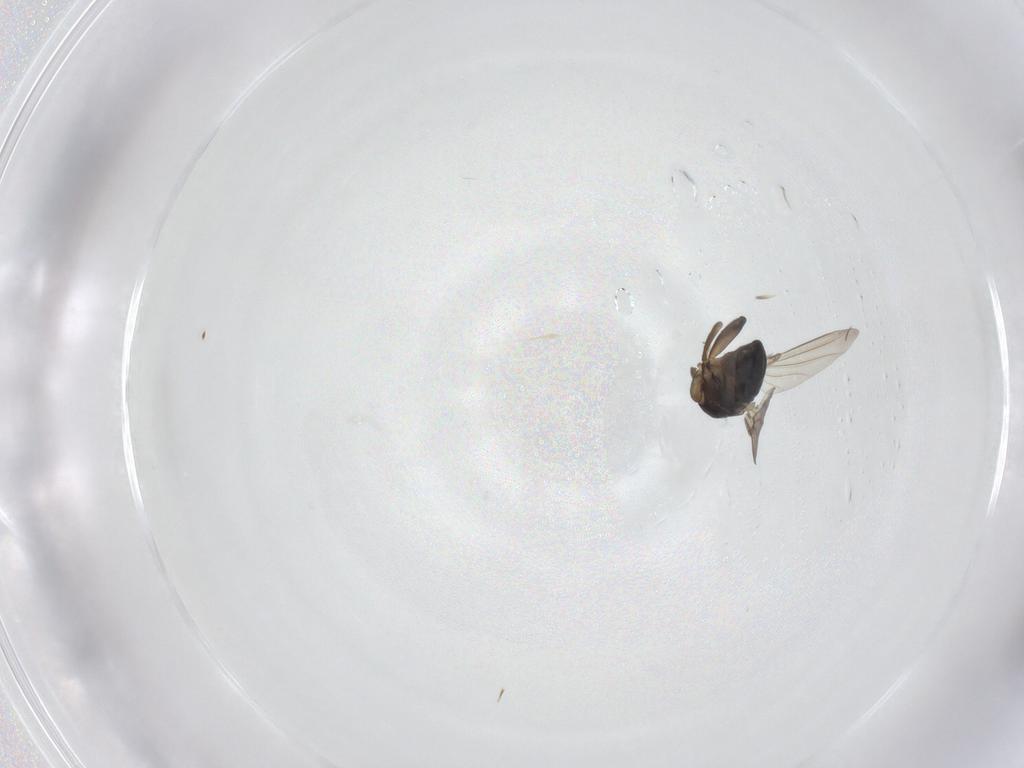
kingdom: Animalia
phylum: Arthropoda
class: Insecta
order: Diptera
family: Phoridae
